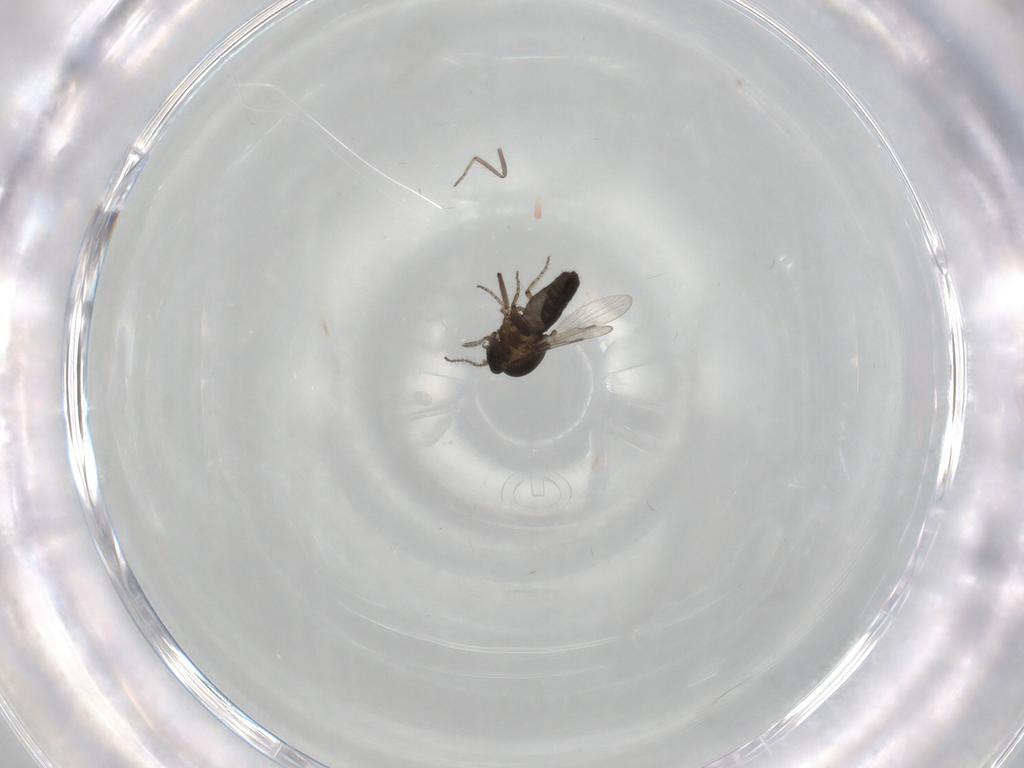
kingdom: Animalia
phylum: Arthropoda
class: Insecta
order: Diptera
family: Ceratopogonidae
